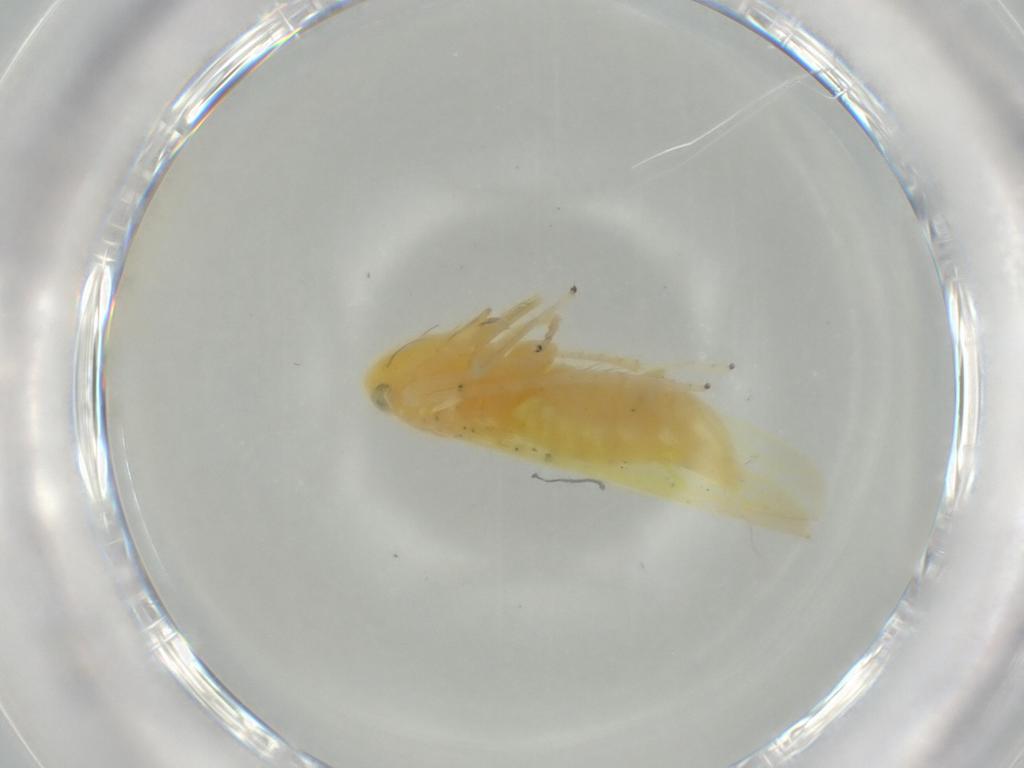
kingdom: Animalia
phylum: Arthropoda
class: Insecta
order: Hemiptera
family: Cicadellidae
